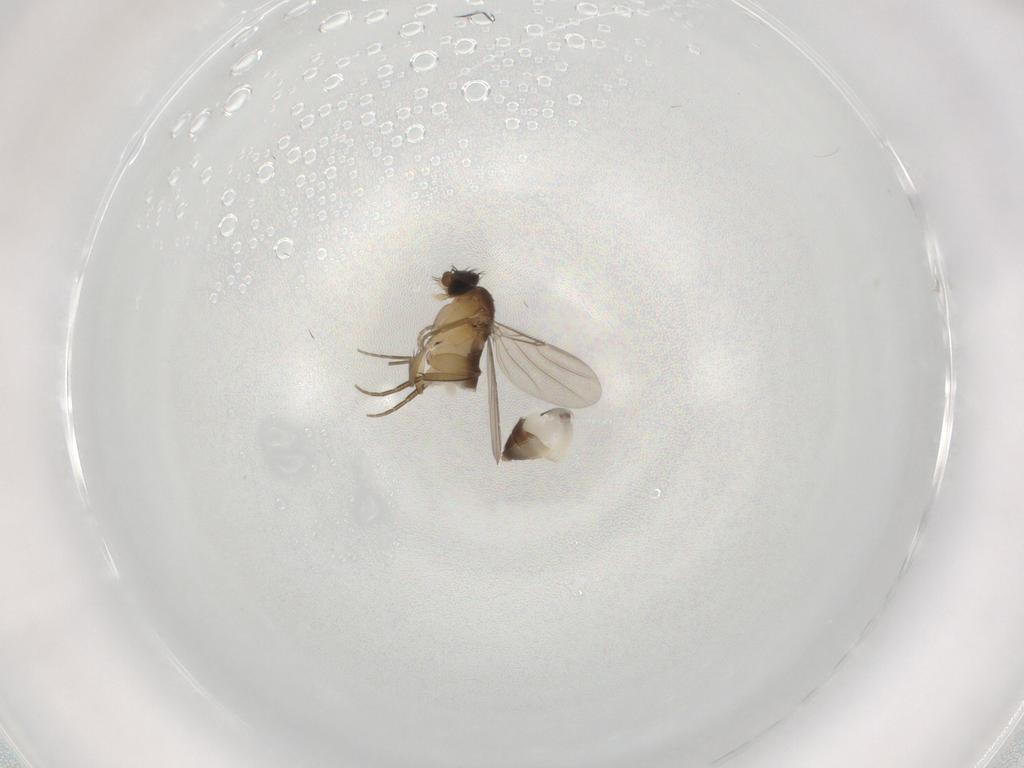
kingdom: Animalia
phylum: Arthropoda
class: Insecta
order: Diptera
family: Phoridae
